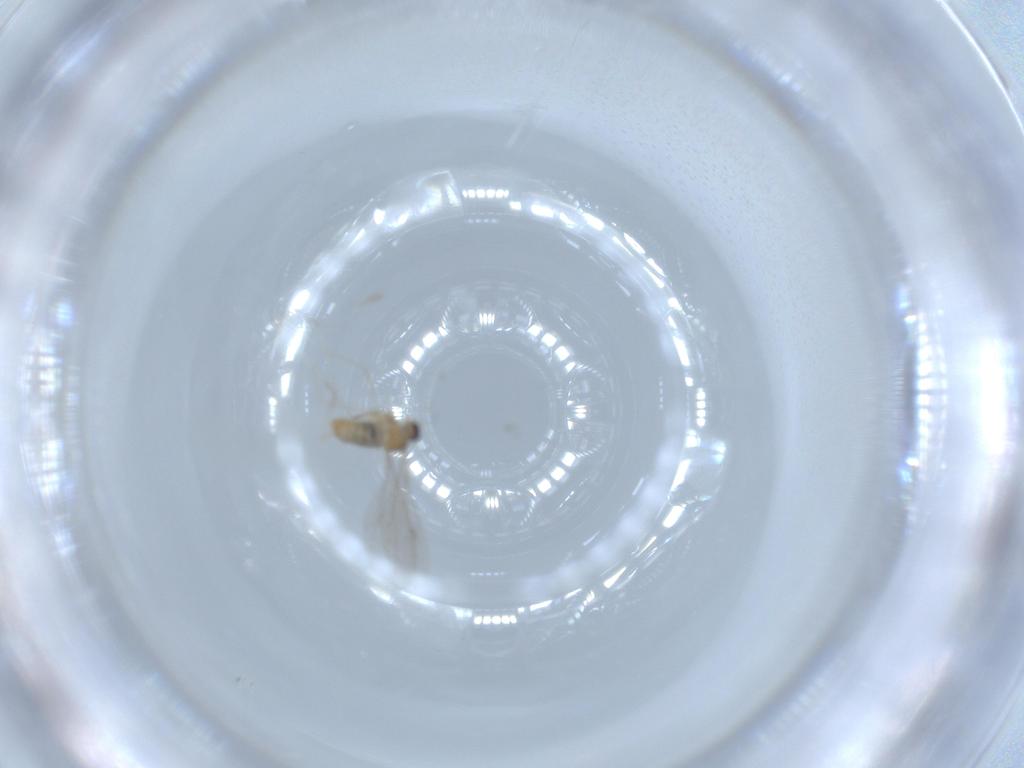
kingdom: Animalia
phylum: Arthropoda
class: Insecta
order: Diptera
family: Cecidomyiidae
